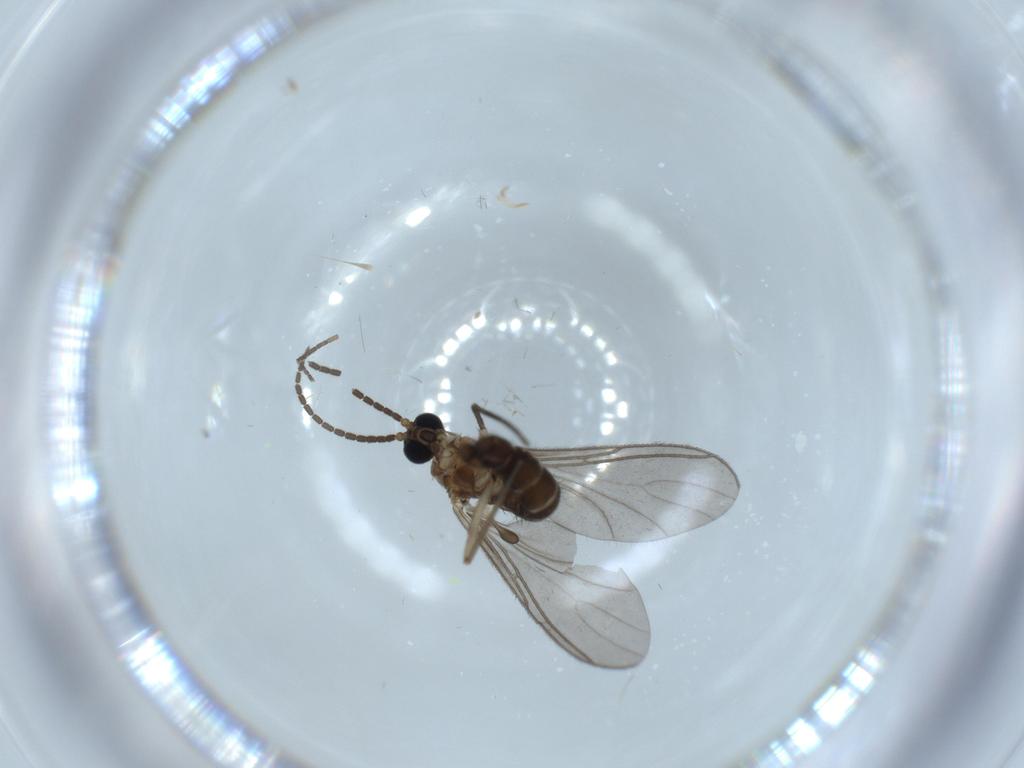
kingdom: Animalia
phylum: Arthropoda
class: Insecta
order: Diptera
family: Sciaridae
